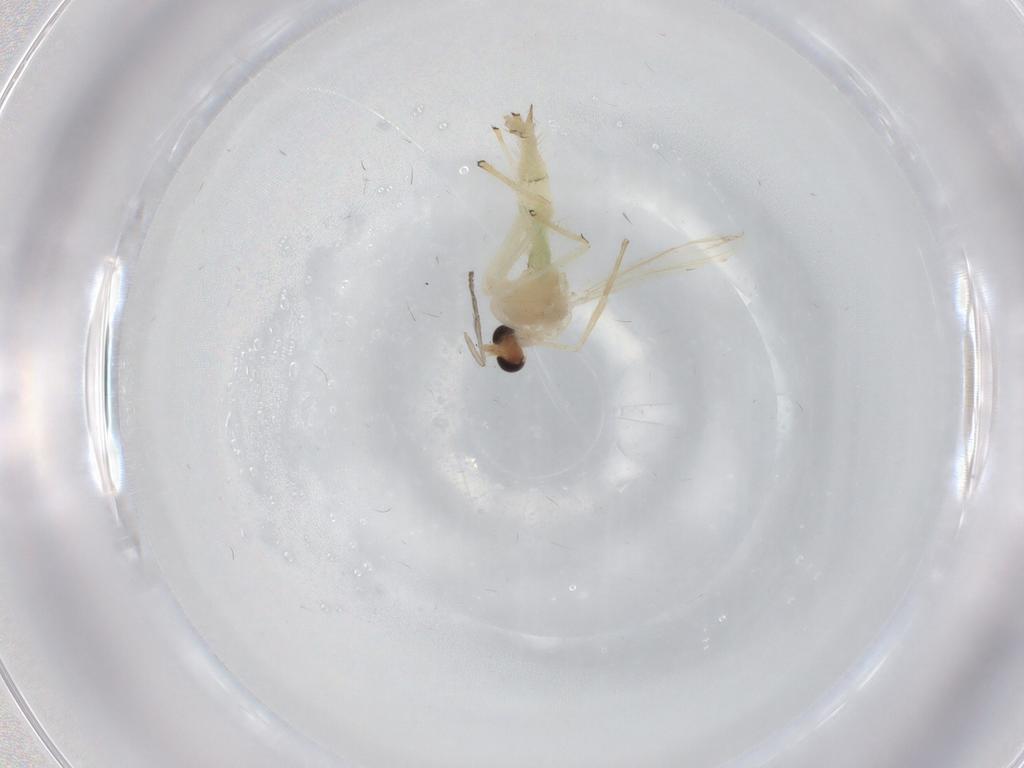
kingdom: Animalia
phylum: Arthropoda
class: Insecta
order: Diptera
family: Chironomidae
